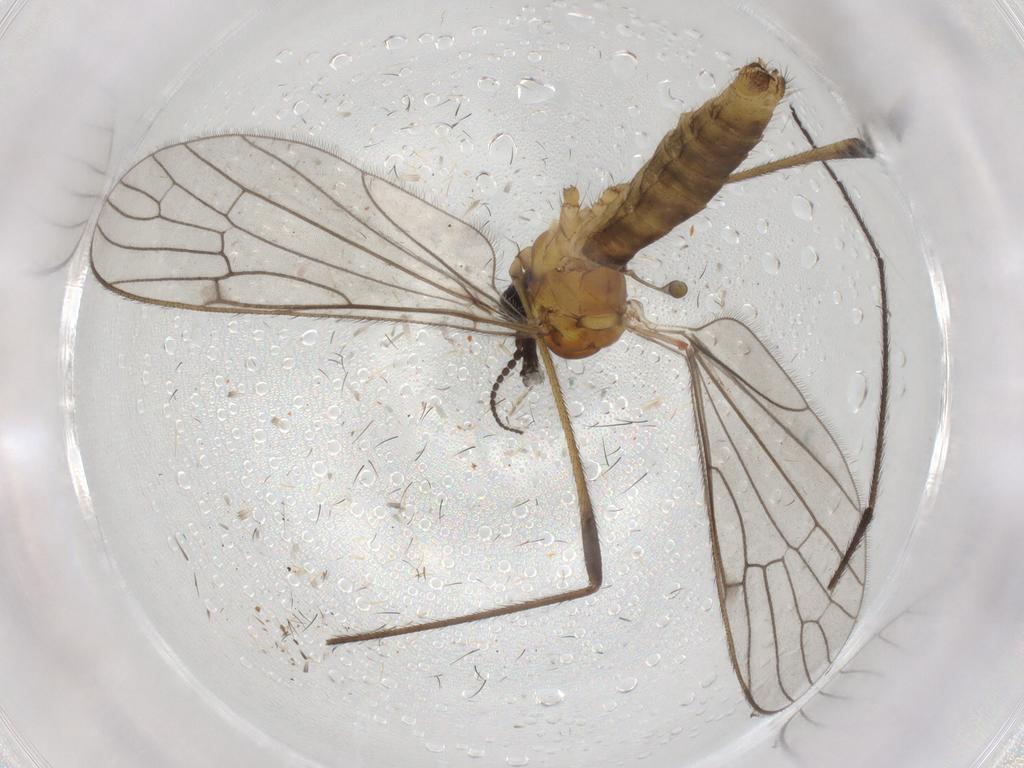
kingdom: Animalia
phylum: Arthropoda
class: Insecta
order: Diptera
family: Limoniidae
